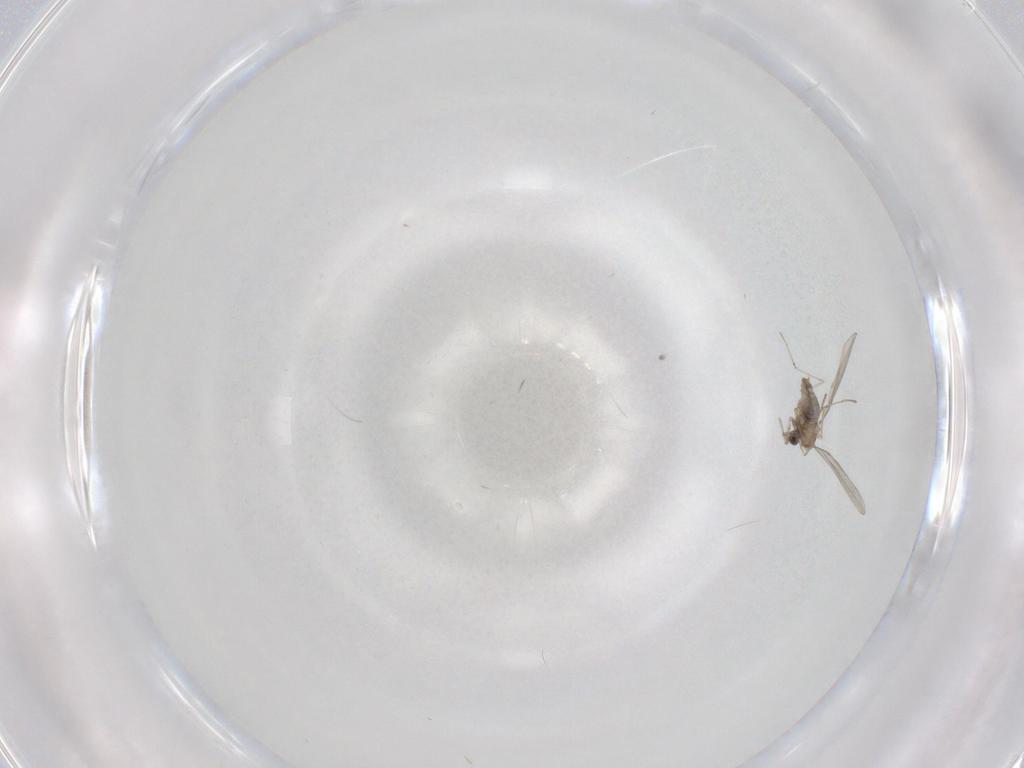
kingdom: Animalia
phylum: Arthropoda
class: Insecta
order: Diptera
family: Cecidomyiidae
